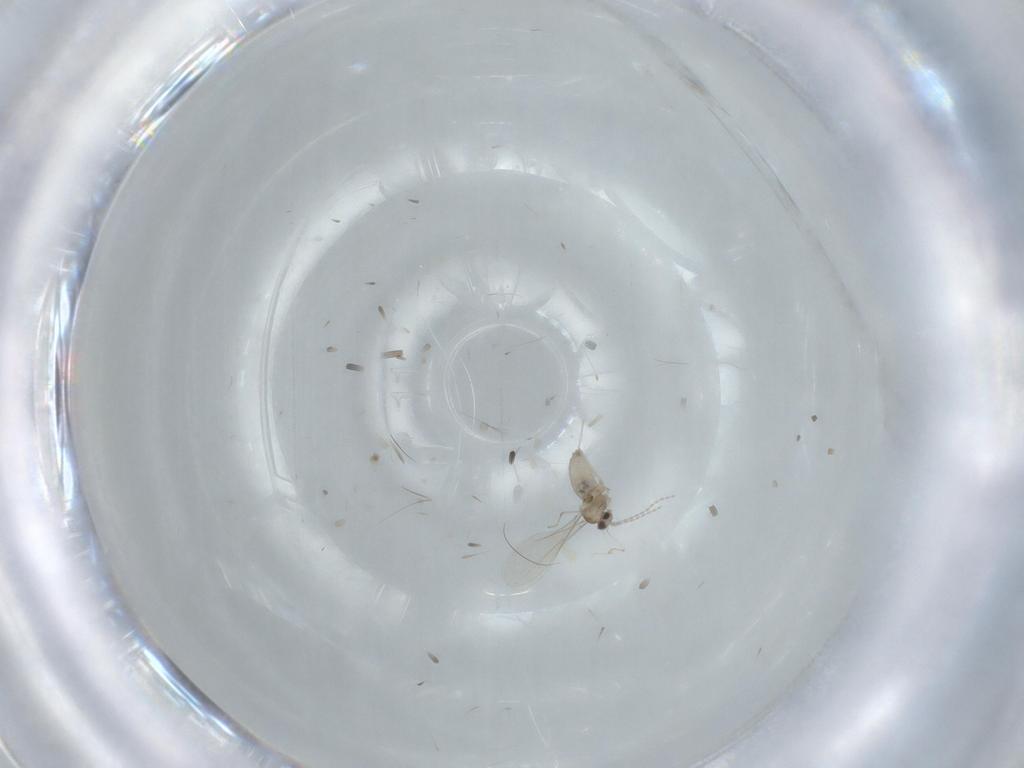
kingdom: Animalia
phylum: Arthropoda
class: Insecta
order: Diptera
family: Cecidomyiidae
